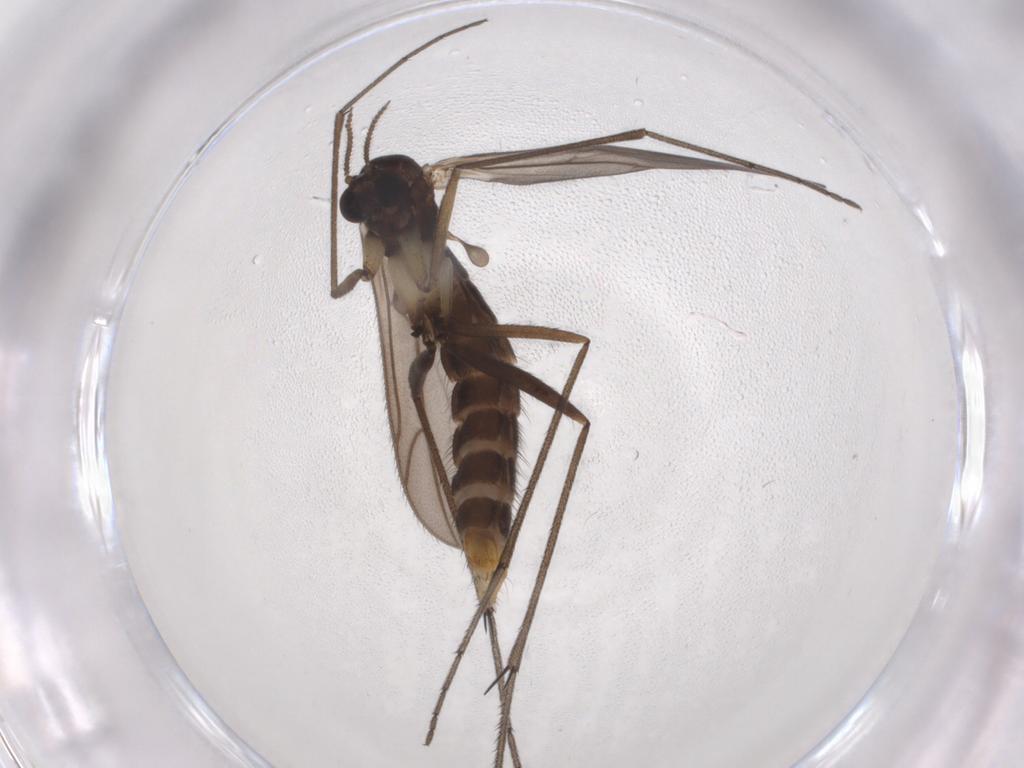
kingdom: Animalia
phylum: Arthropoda
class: Insecta
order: Diptera
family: Ditomyiidae
